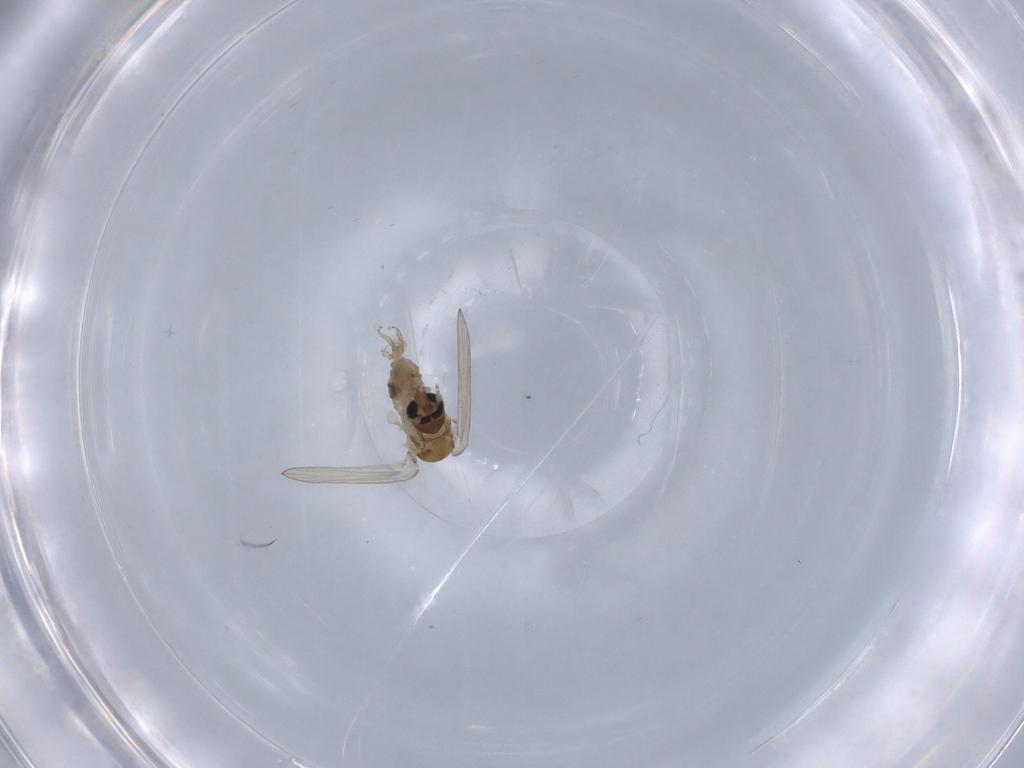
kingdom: Animalia
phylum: Arthropoda
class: Insecta
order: Diptera
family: Psychodidae
